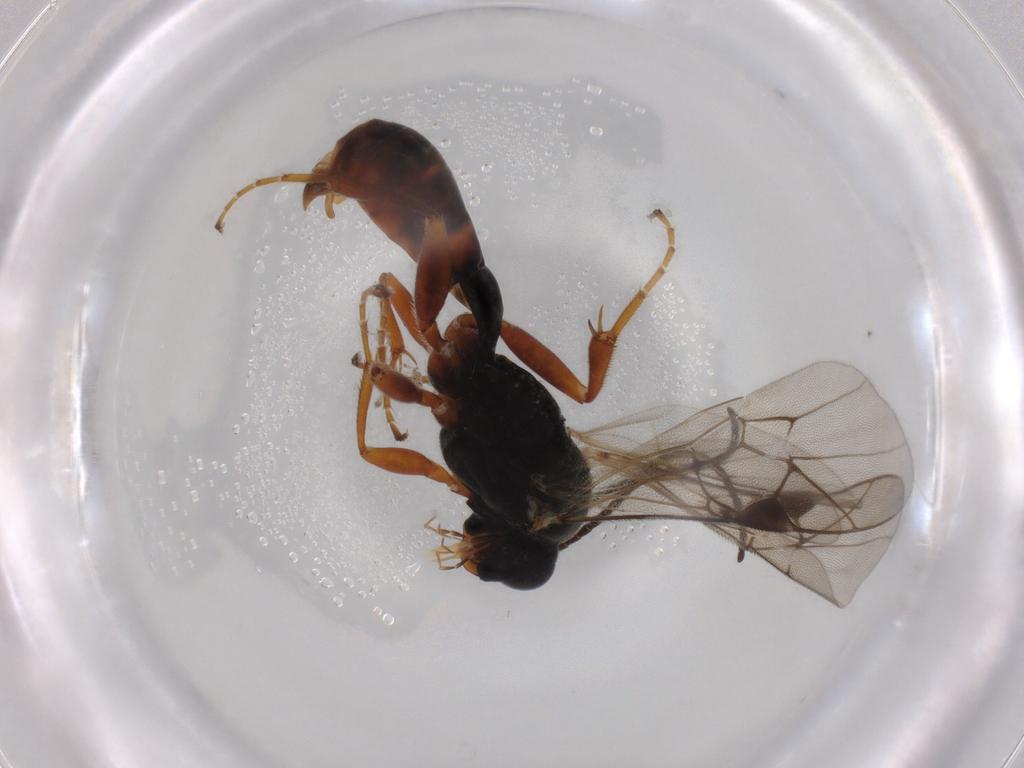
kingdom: Animalia
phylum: Arthropoda
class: Insecta
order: Hymenoptera
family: Ichneumonidae
